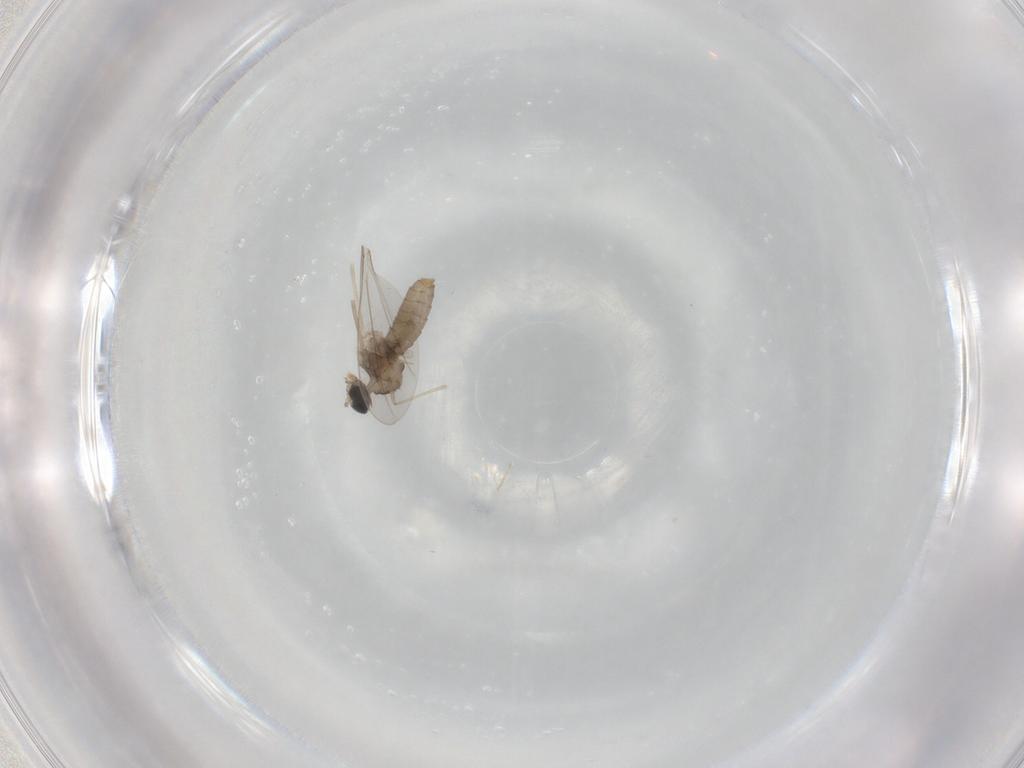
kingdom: Animalia
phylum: Arthropoda
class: Insecta
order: Diptera
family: Cecidomyiidae
